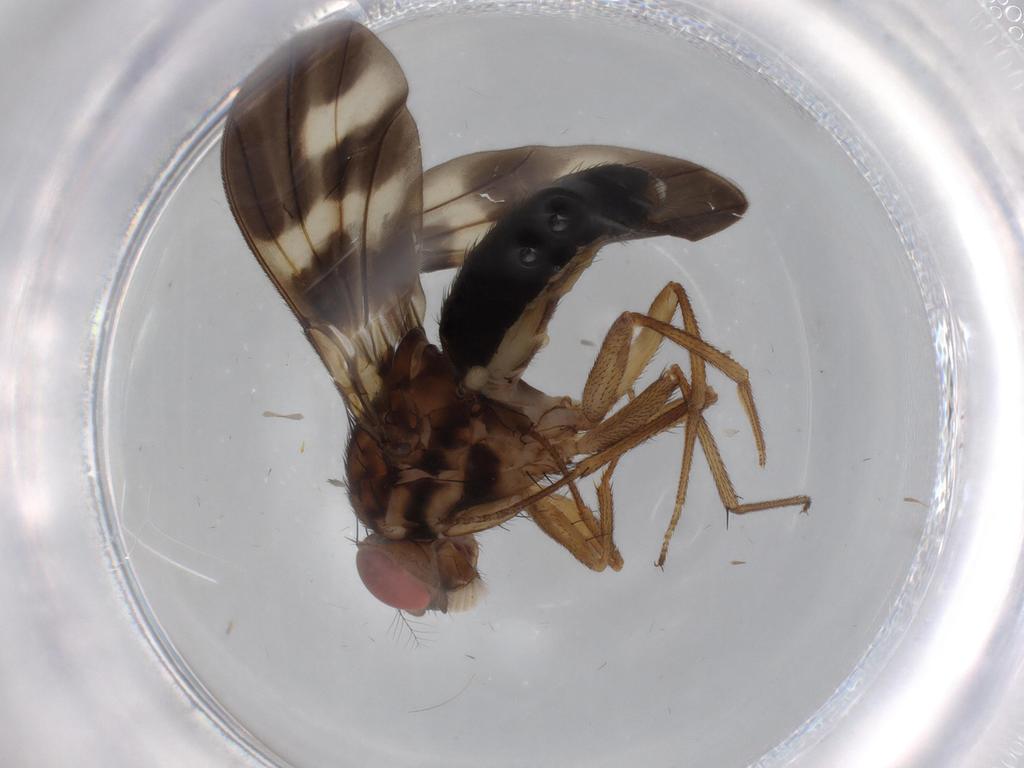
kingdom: Animalia
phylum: Arthropoda
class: Insecta
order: Diptera
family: Drosophilidae
